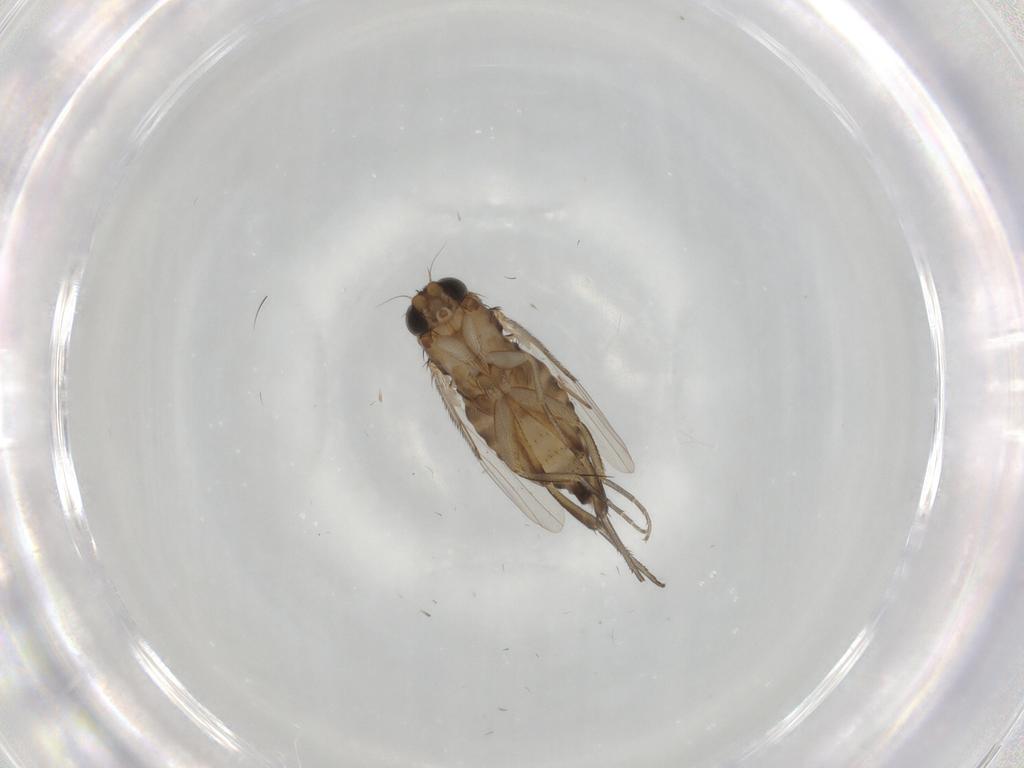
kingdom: Animalia
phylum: Arthropoda
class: Insecta
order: Diptera
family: Phoridae
